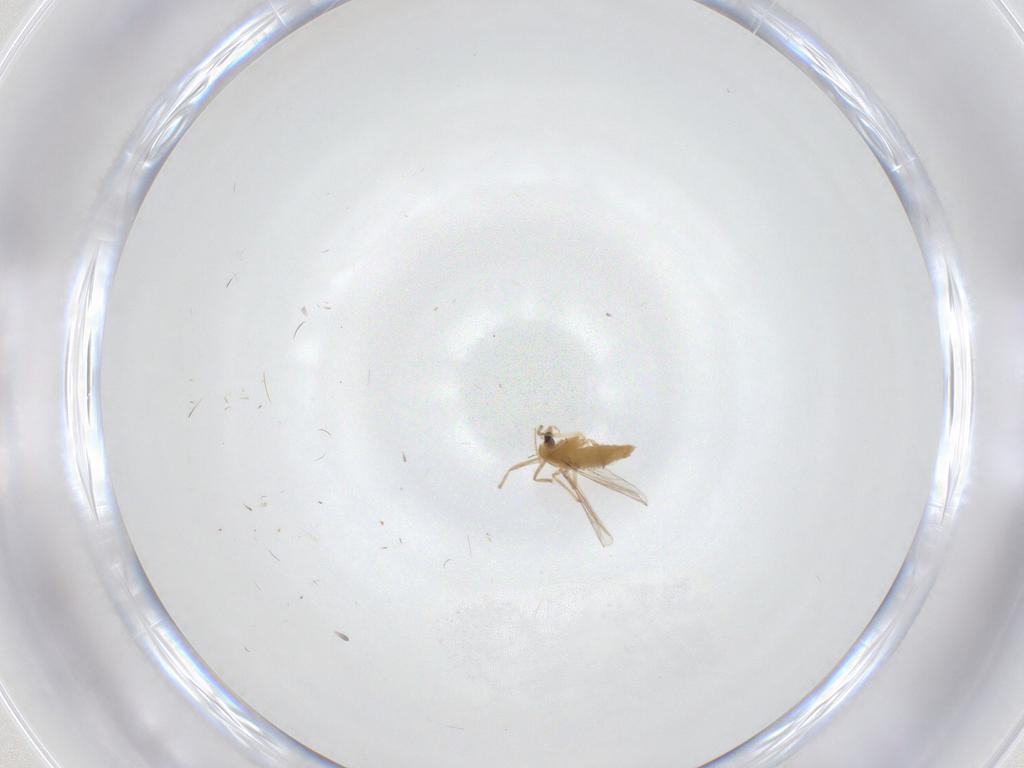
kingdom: Animalia
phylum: Arthropoda
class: Insecta
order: Diptera
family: Chironomidae
